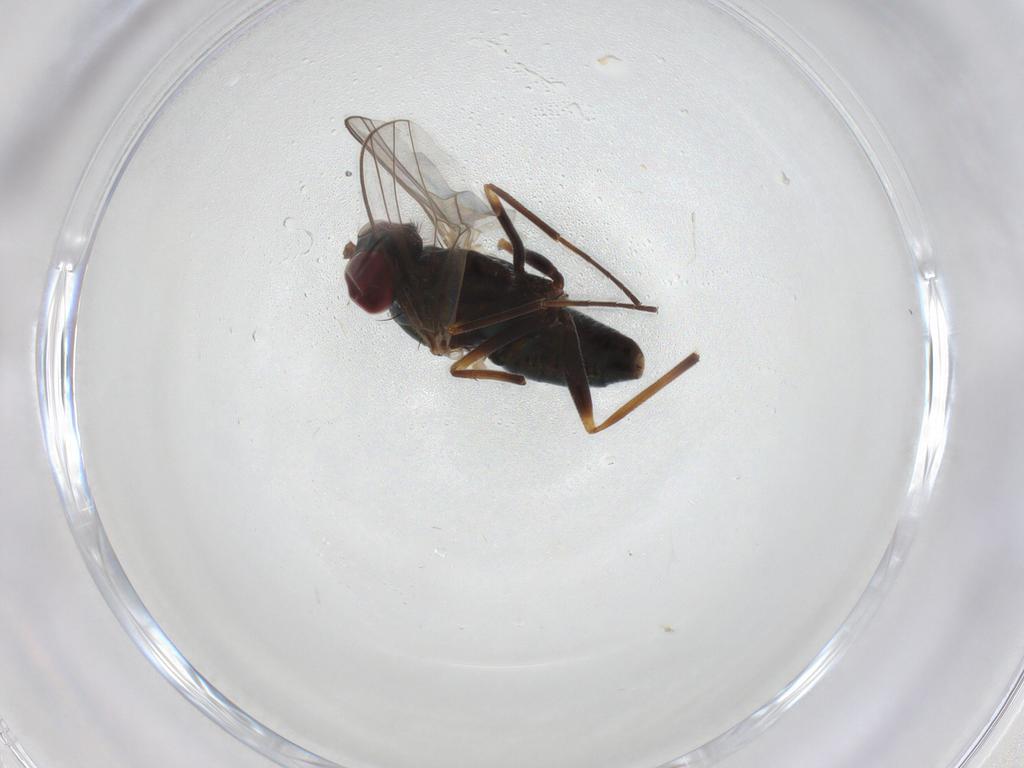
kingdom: Animalia
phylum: Arthropoda
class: Insecta
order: Diptera
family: Dolichopodidae
